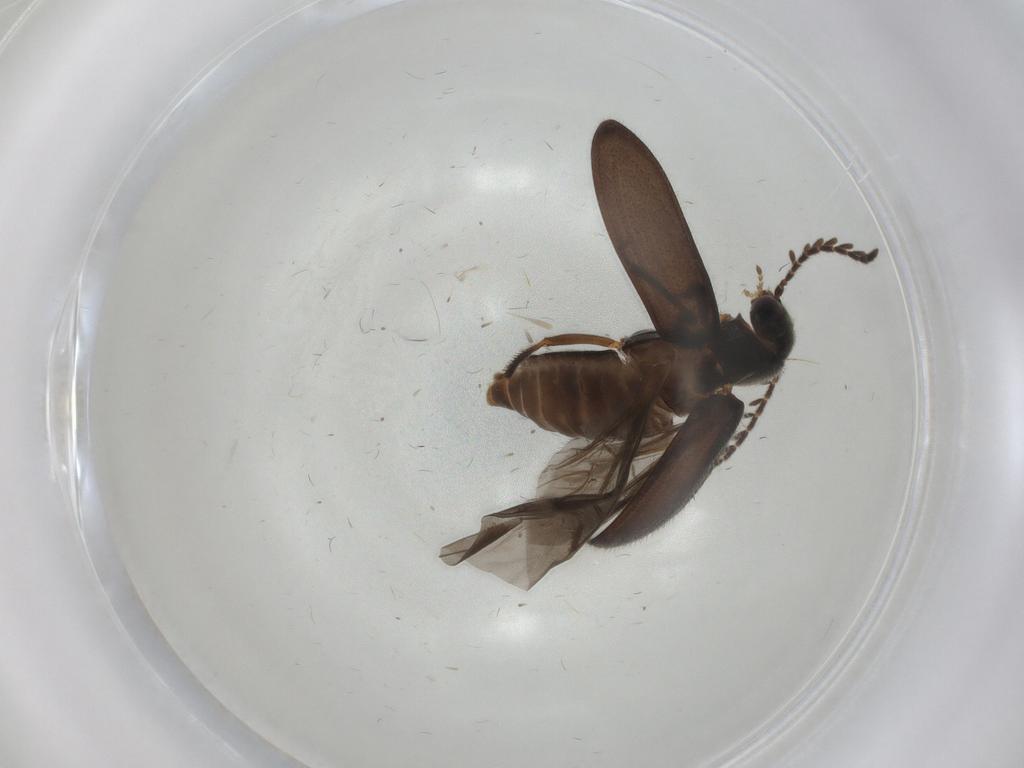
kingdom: Animalia
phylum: Arthropoda
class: Insecta
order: Coleoptera
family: Ptilodactylidae
